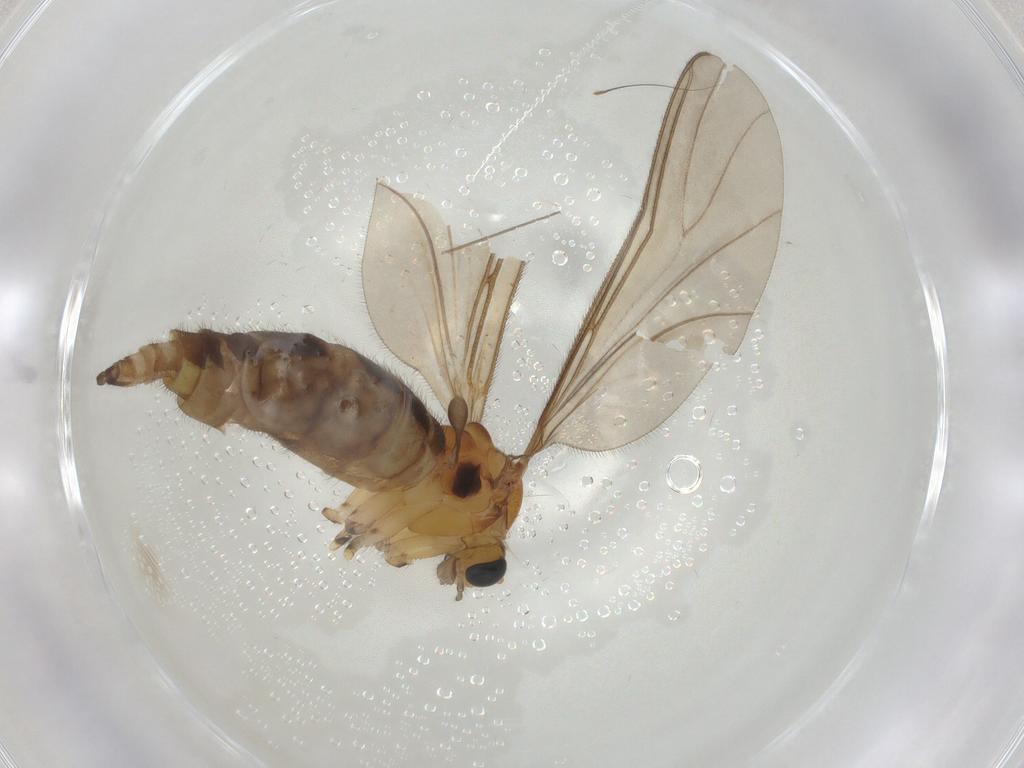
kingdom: Animalia
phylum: Arthropoda
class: Insecta
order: Diptera
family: Sciaridae
